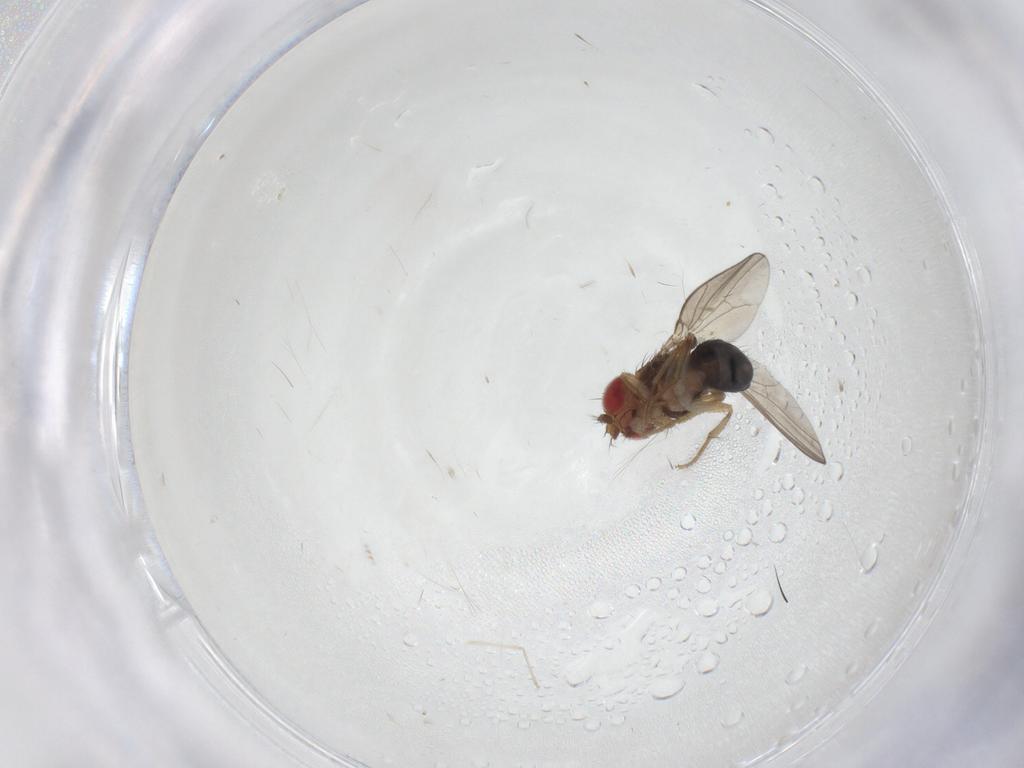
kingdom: Animalia
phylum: Arthropoda
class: Insecta
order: Diptera
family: Drosophilidae
